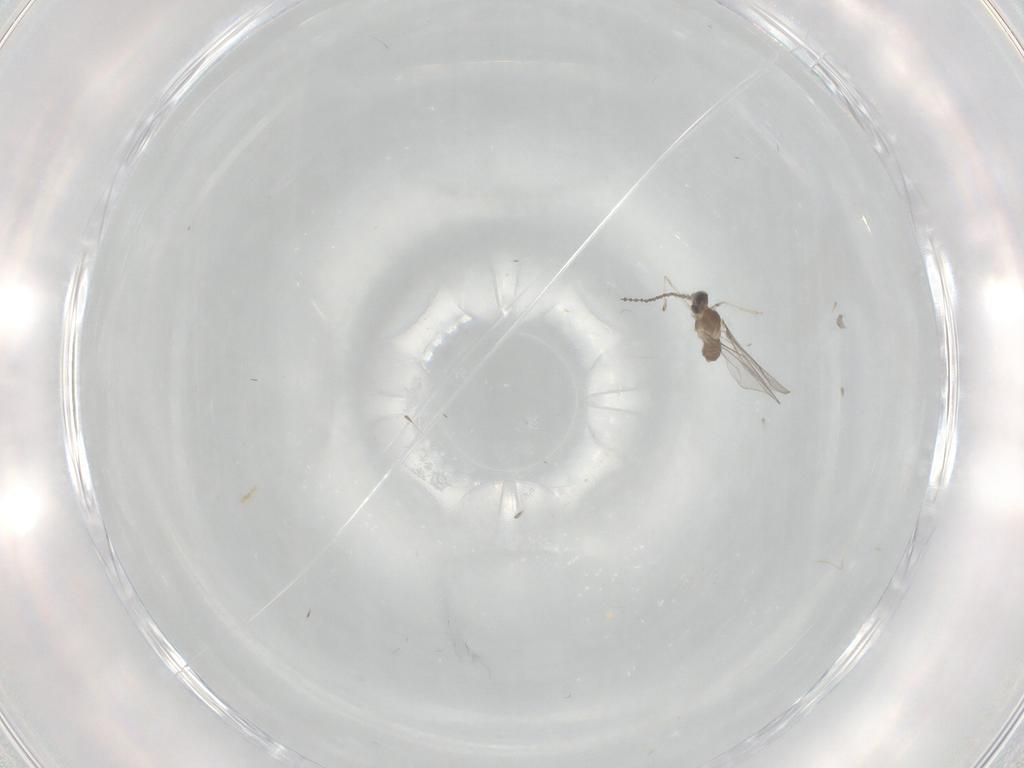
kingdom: Animalia
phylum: Arthropoda
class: Insecta
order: Diptera
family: Cecidomyiidae
